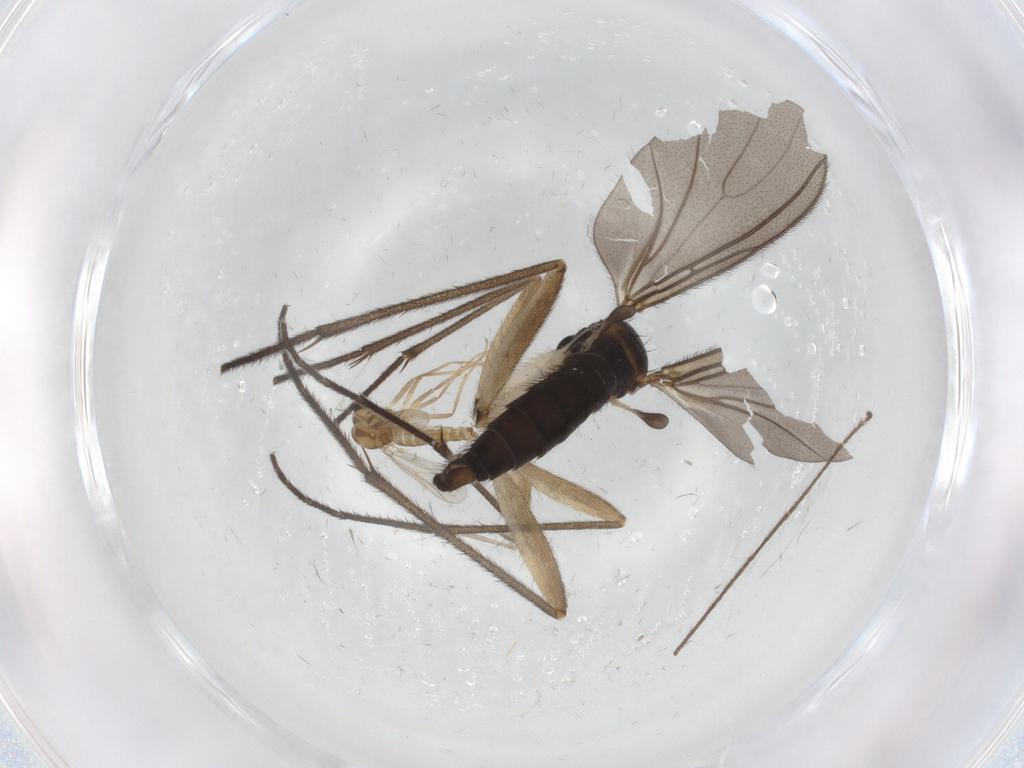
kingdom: Animalia
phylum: Arthropoda
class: Insecta
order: Diptera
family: Sciaridae
